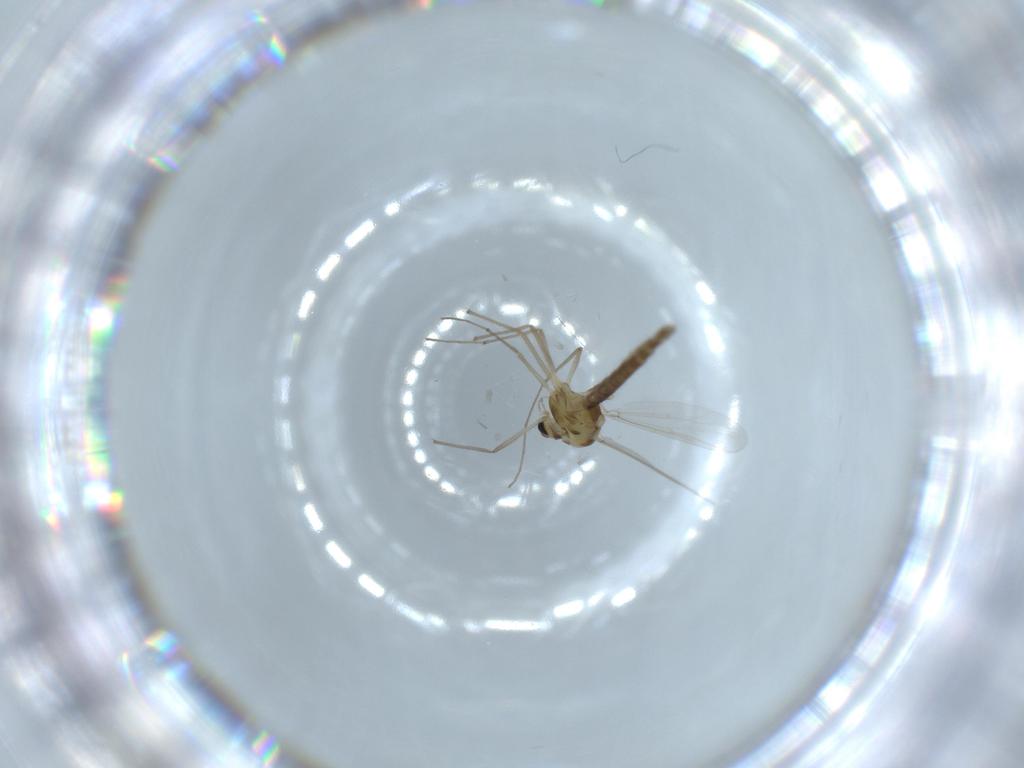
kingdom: Animalia
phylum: Arthropoda
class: Insecta
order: Diptera
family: Chironomidae
